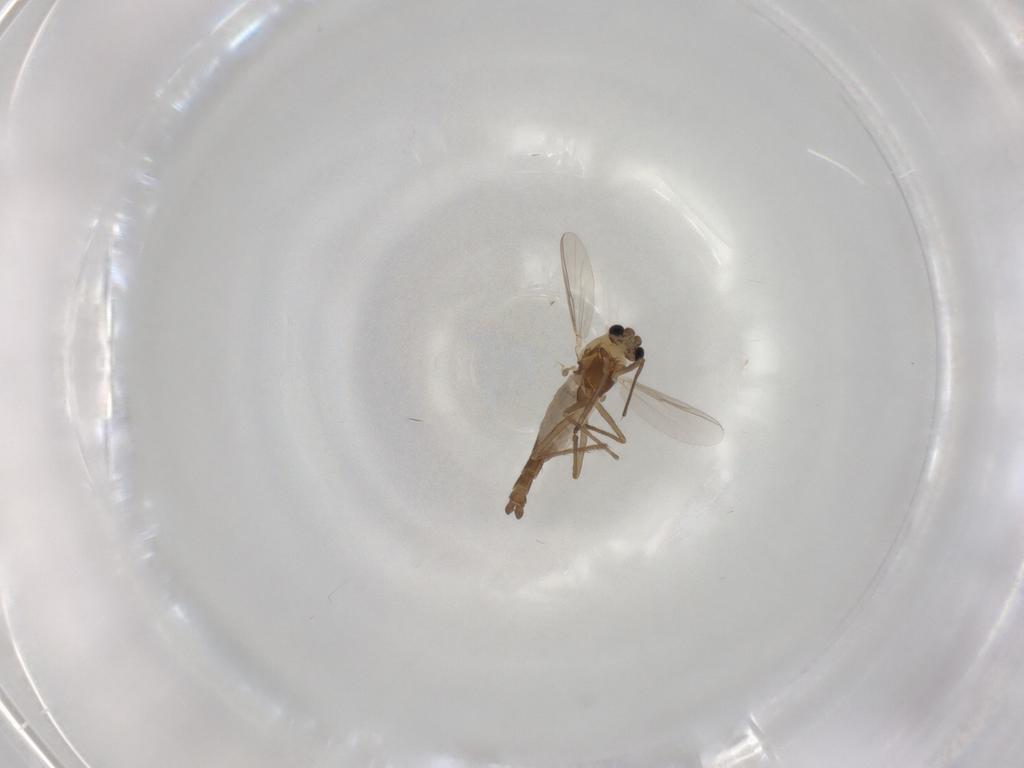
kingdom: Animalia
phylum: Arthropoda
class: Insecta
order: Diptera
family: Chironomidae
